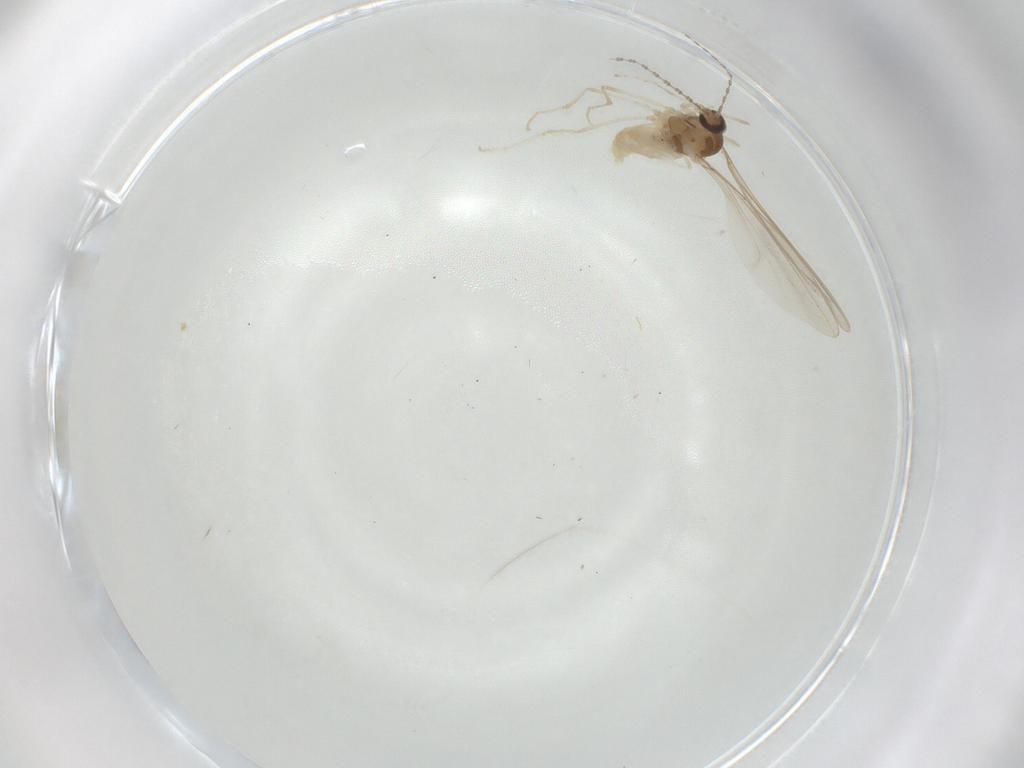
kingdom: Animalia
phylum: Arthropoda
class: Insecta
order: Diptera
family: Cecidomyiidae
